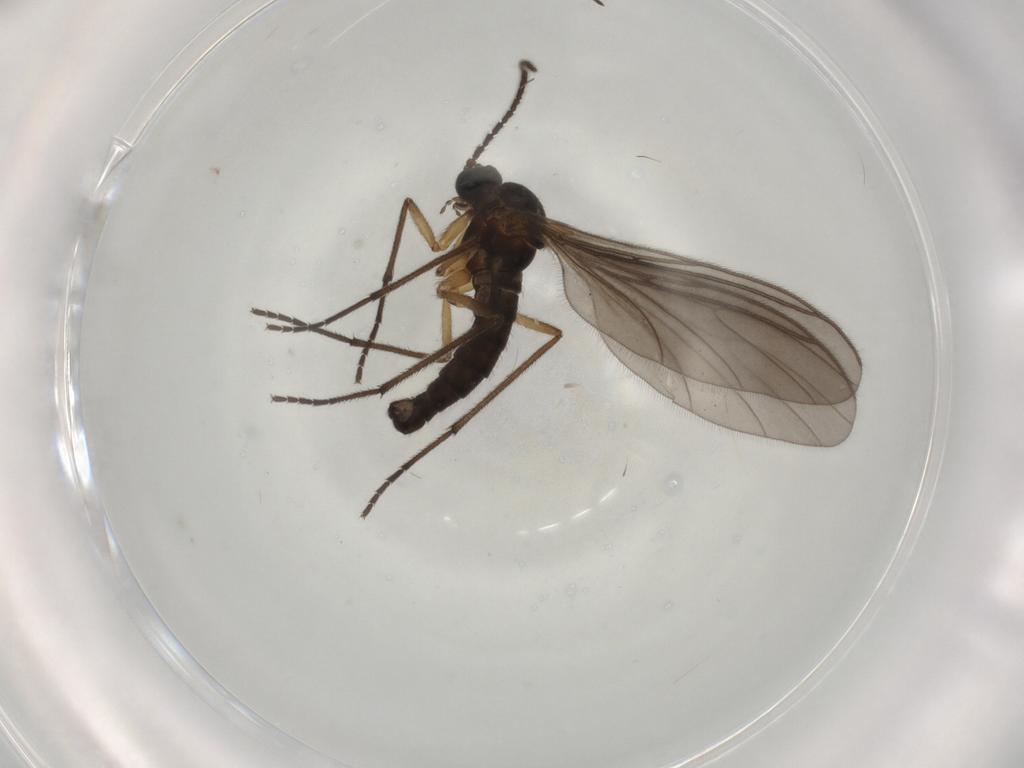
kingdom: Animalia
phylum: Arthropoda
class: Insecta
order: Diptera
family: Sciaridae
